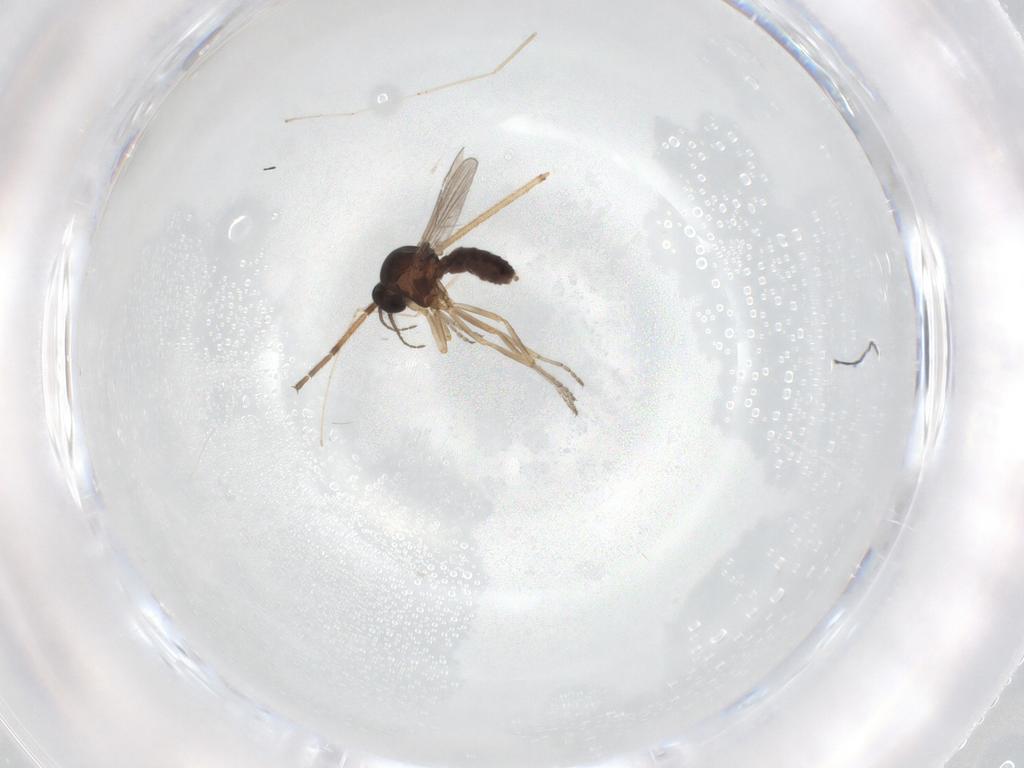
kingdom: Animalia
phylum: Arthropoda
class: Insecta
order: Diptera
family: Ceratopogonidae
